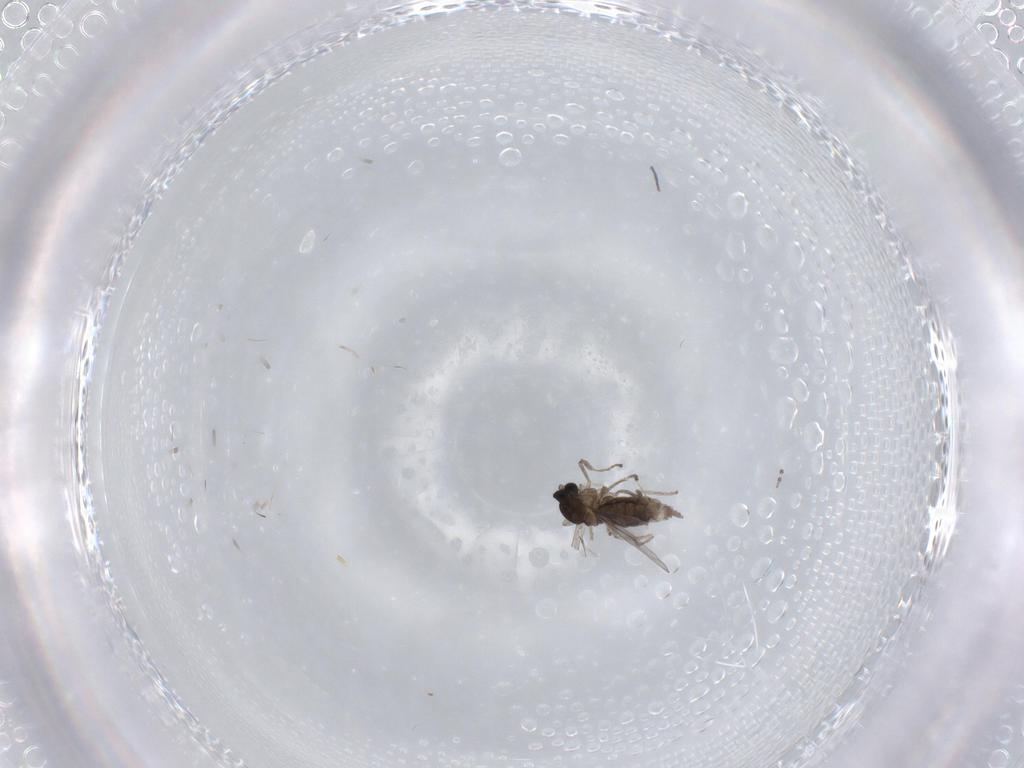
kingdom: Animalia
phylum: Arthropoda
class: Insecta
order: Diptera
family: Cecidomyiidae
